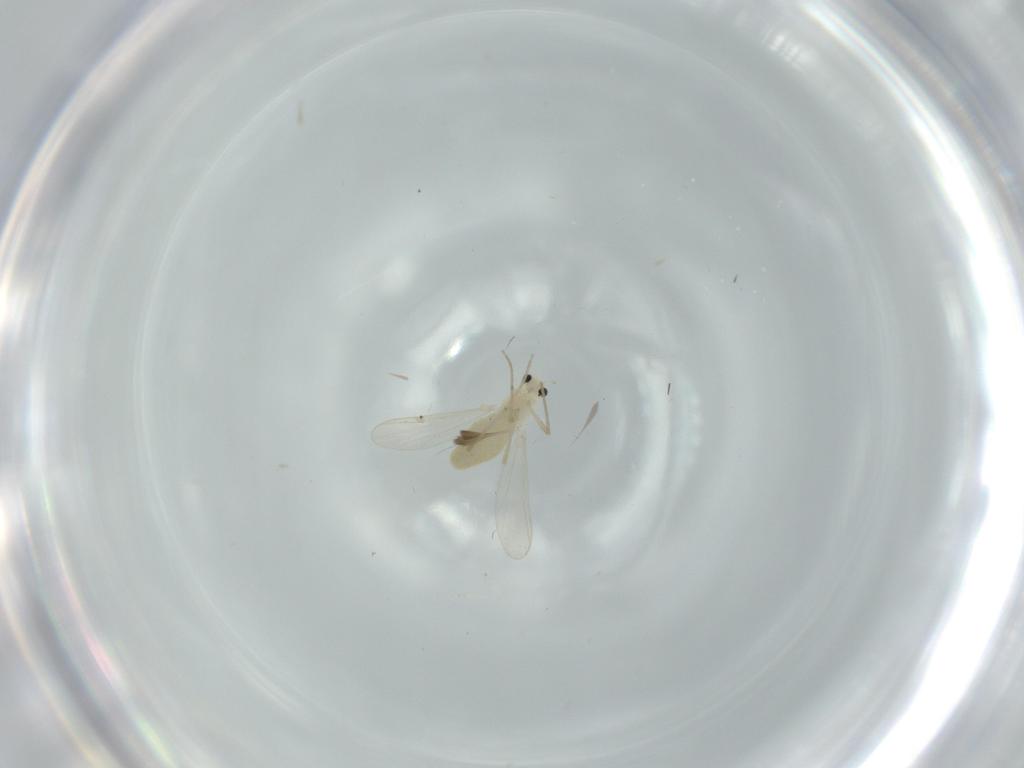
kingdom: Animalia
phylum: Arthropoda
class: Insecta
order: Diptera
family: Chironomidae
